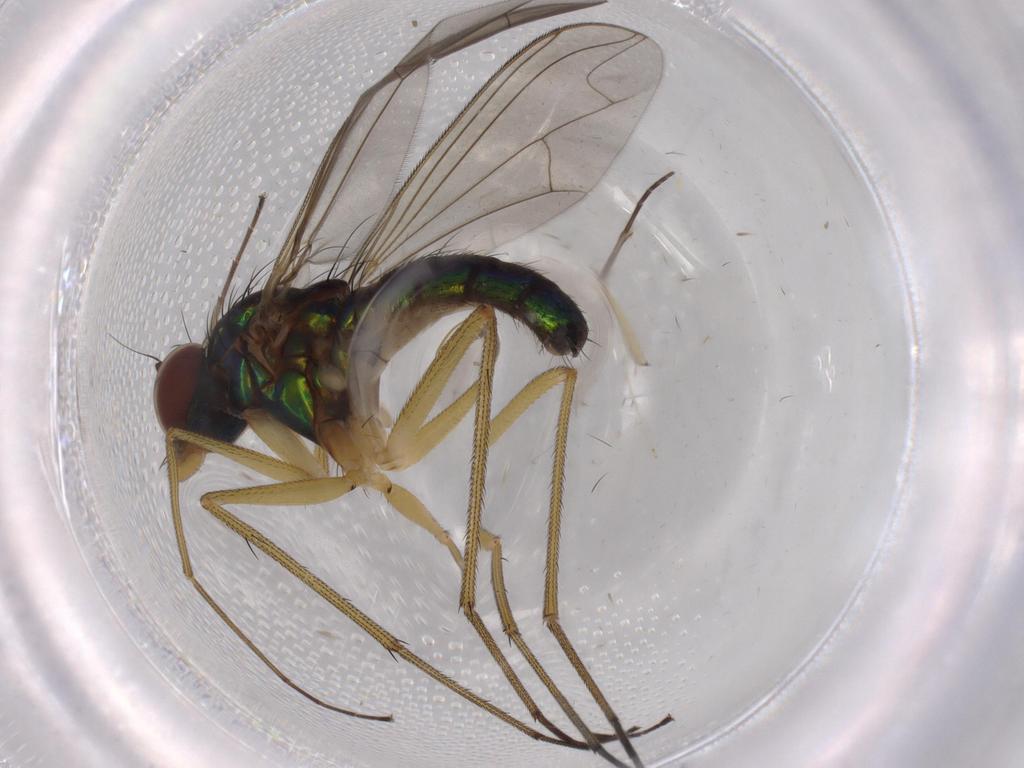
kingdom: Animalia
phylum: Arthropoda
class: Insecta
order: Diptera
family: Dolichopodidae
